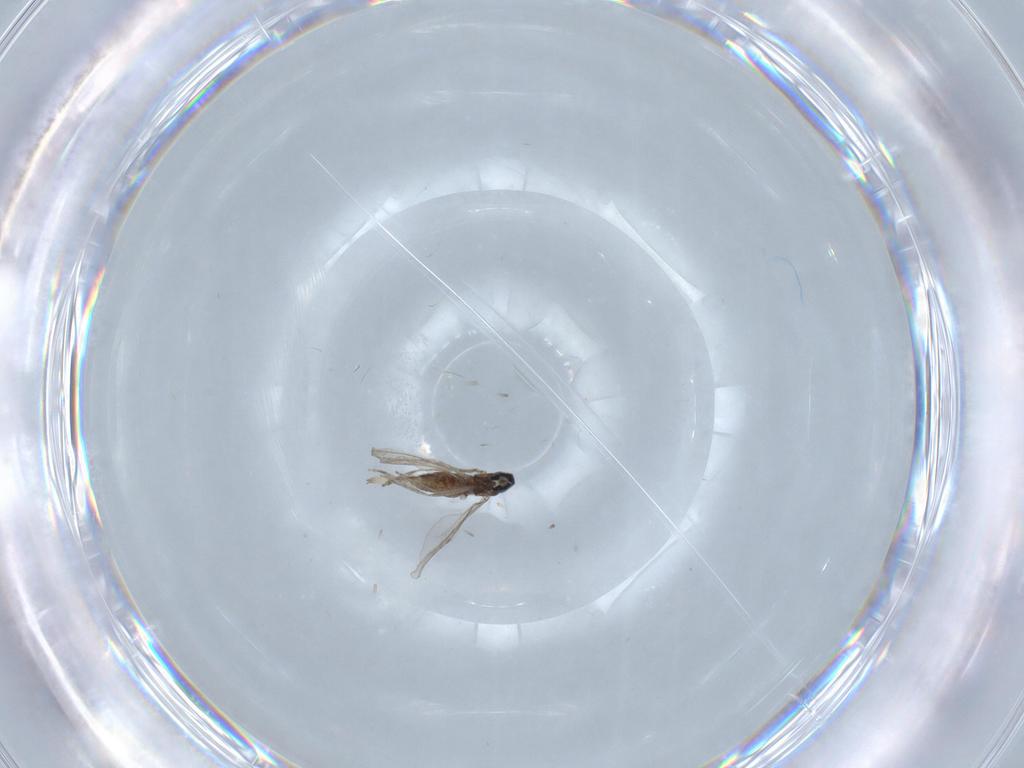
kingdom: Animalia
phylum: Arthropoda
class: Insecta
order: Diptera
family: Cecidomyiidae
